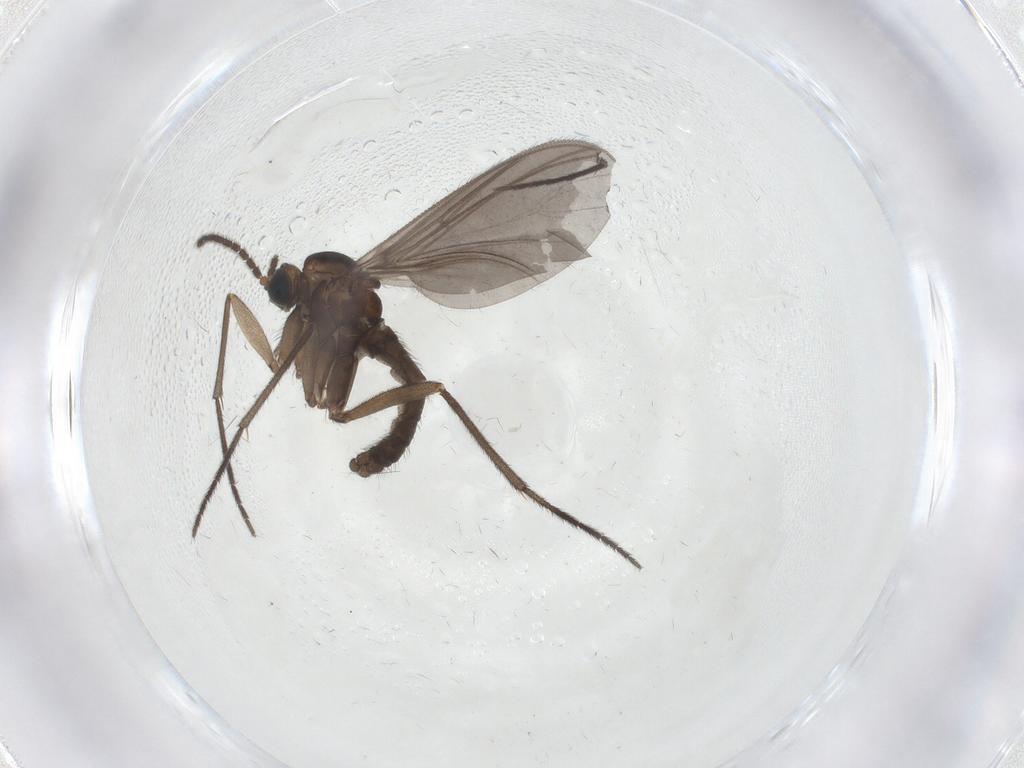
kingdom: Animalia
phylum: Arthropoda
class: Insecta
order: Diptera
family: Sciaridae
